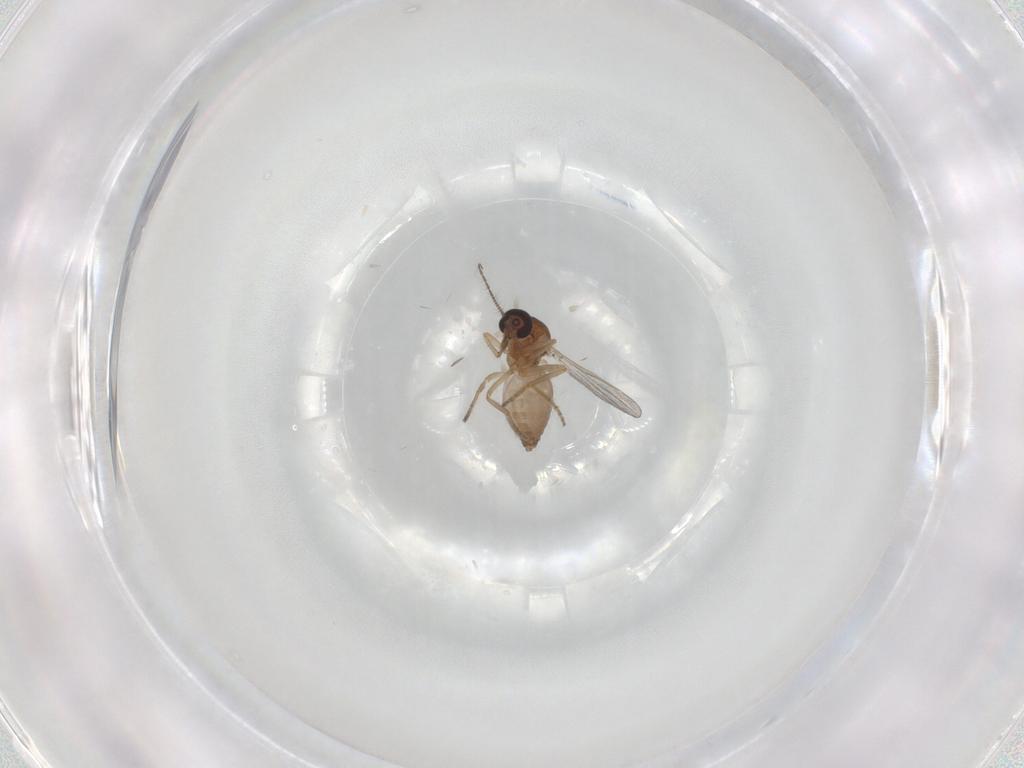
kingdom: Animalia
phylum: Arthropoda
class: Insecta
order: Diptera
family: Ceratopogonidae
